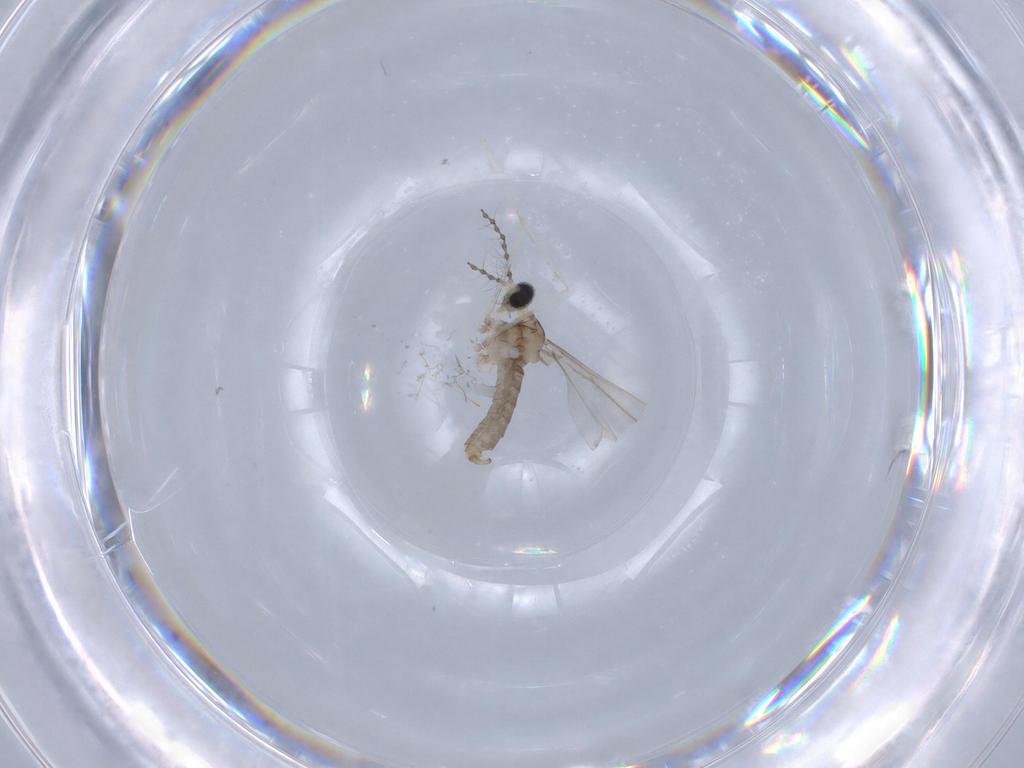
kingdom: Animalia
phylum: Arthropoda
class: Insecta
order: Diptera
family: Cecidomyiidae
